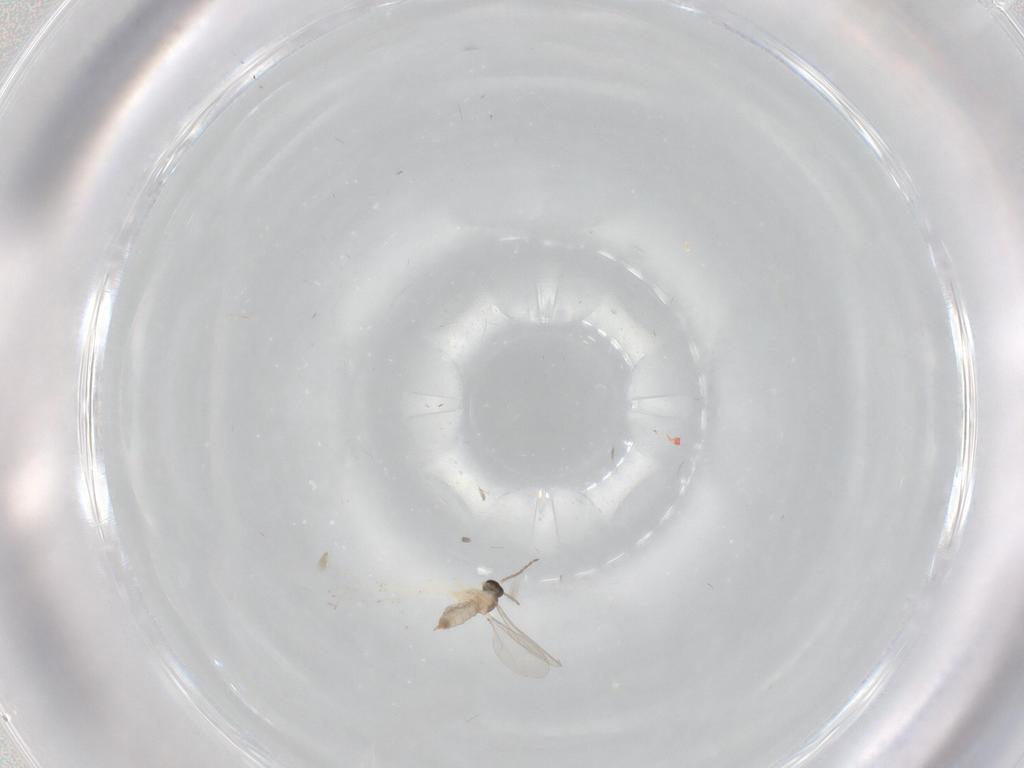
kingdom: Animalia
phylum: Arthropoda
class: Insecta
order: Diptera
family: Cecidomyiidae
